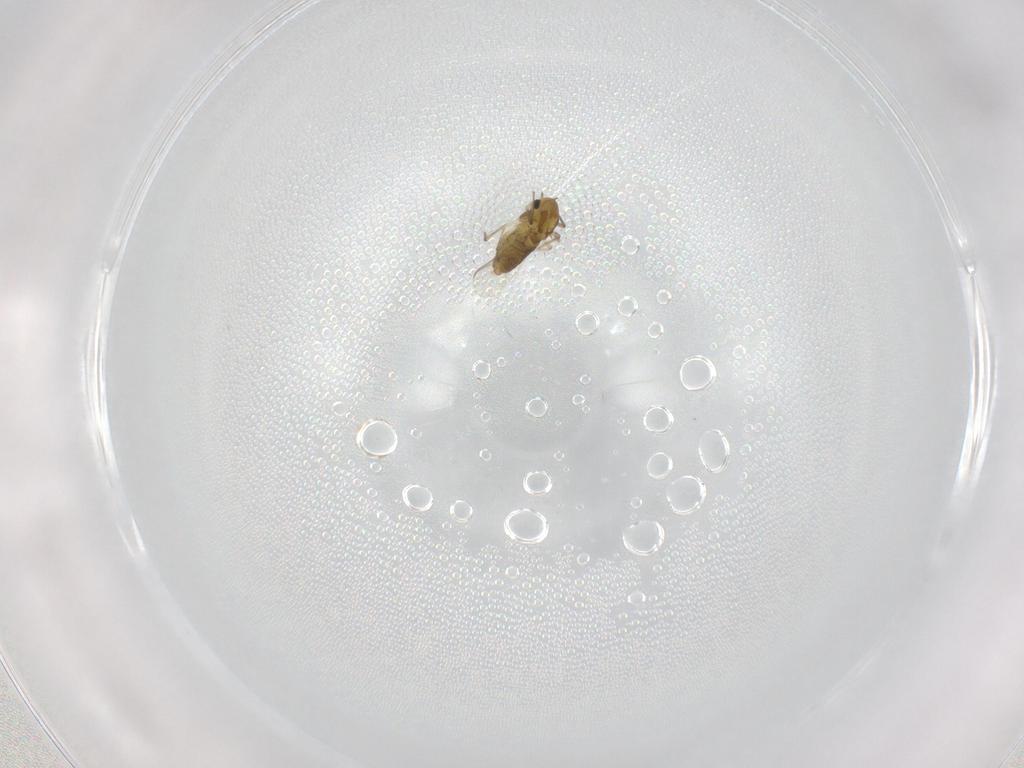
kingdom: Animalia
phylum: Arthropoda
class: Insecta
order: Diptera
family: Chironomidae
